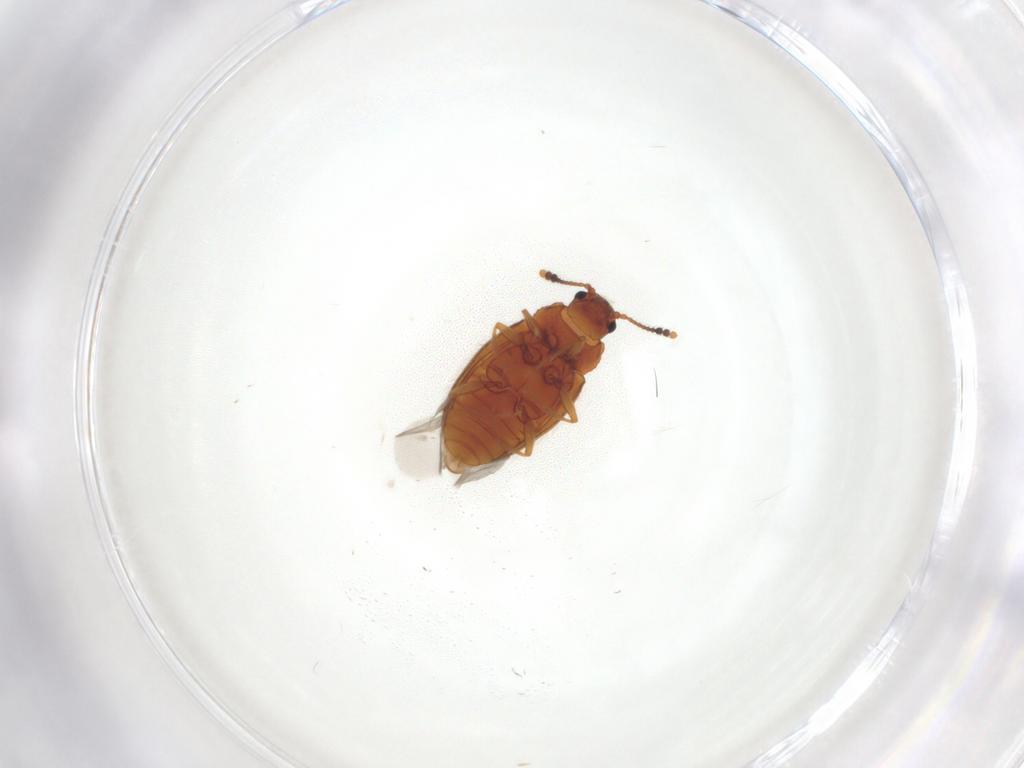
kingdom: Animalia
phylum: Arthropoda
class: Insecta
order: Coleoptera
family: Erotylidae
